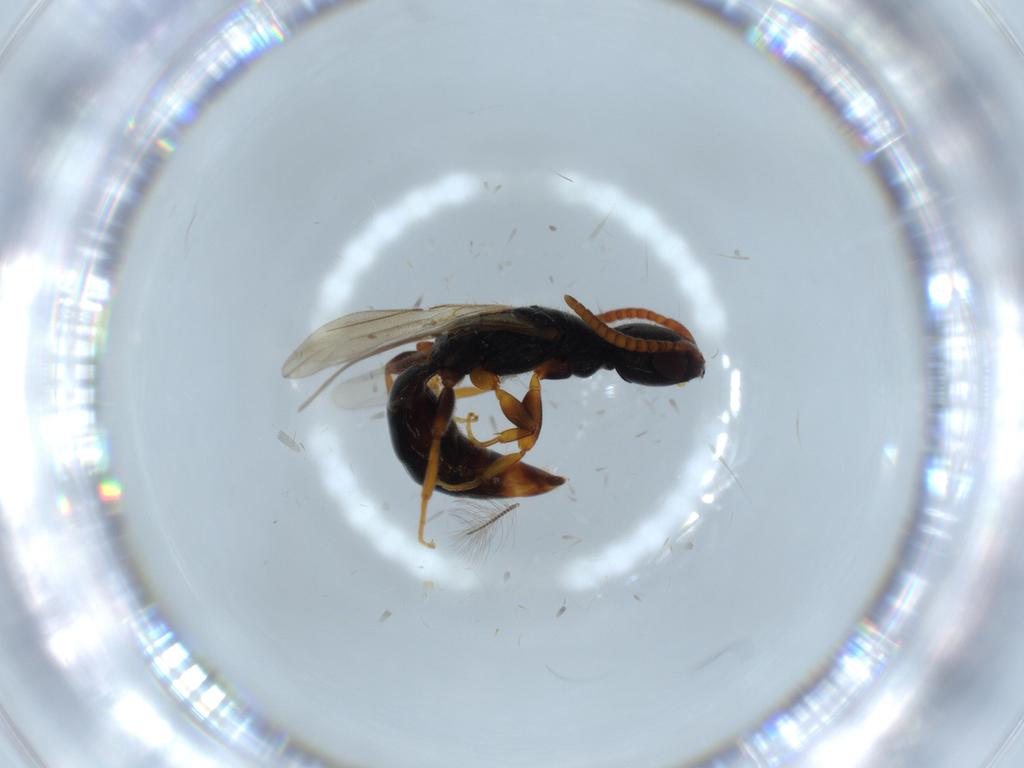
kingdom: Animalia
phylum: Arthropoda
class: Insecta
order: Hymenoptera
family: Bethylidae
